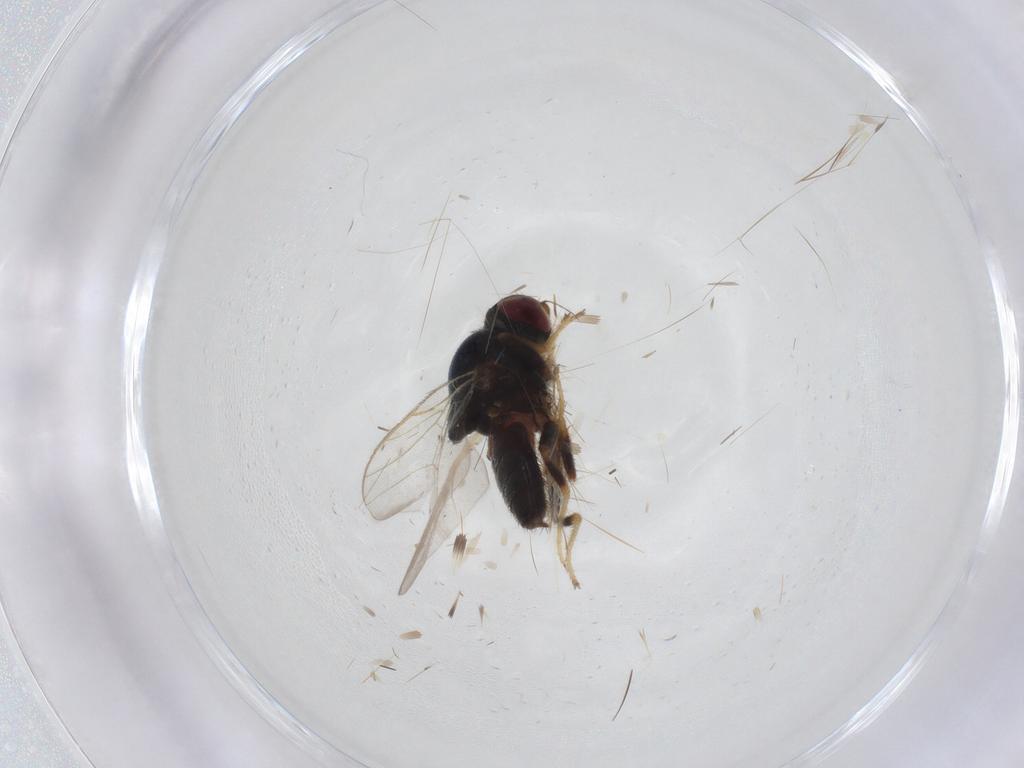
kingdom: Animalia
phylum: Arthropoda
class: Insecta
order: Diptera
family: Chloropidae
